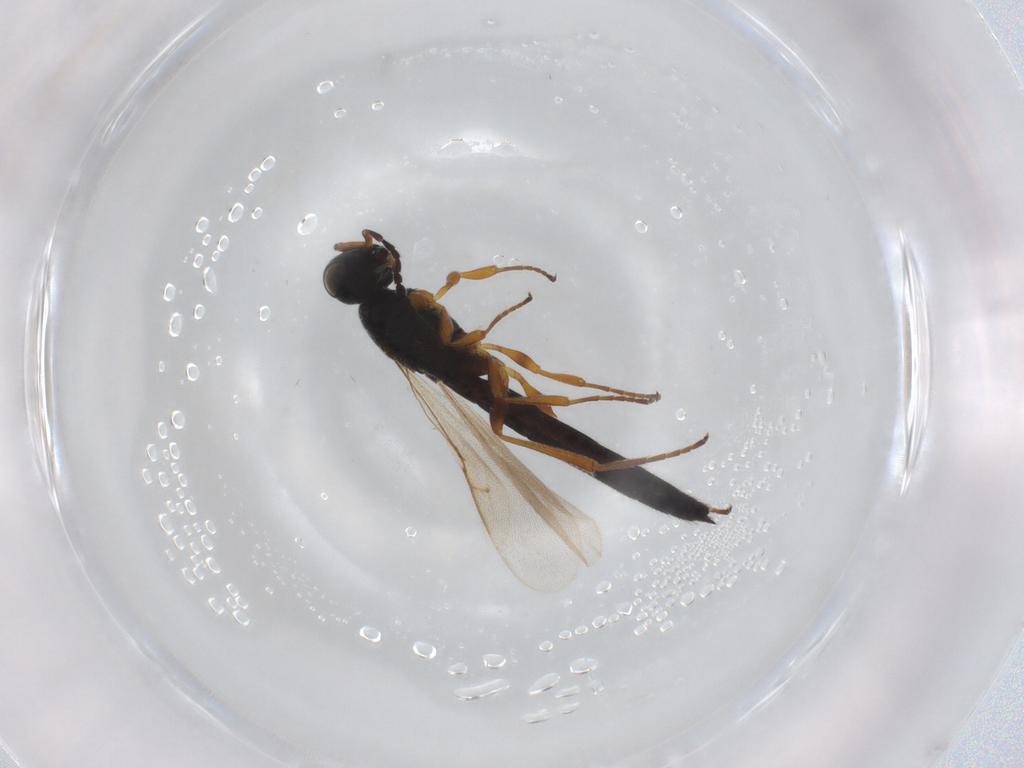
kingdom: Animalia
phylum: Arthropoda
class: Insecta
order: Hymenoptera
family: Scelionidae
